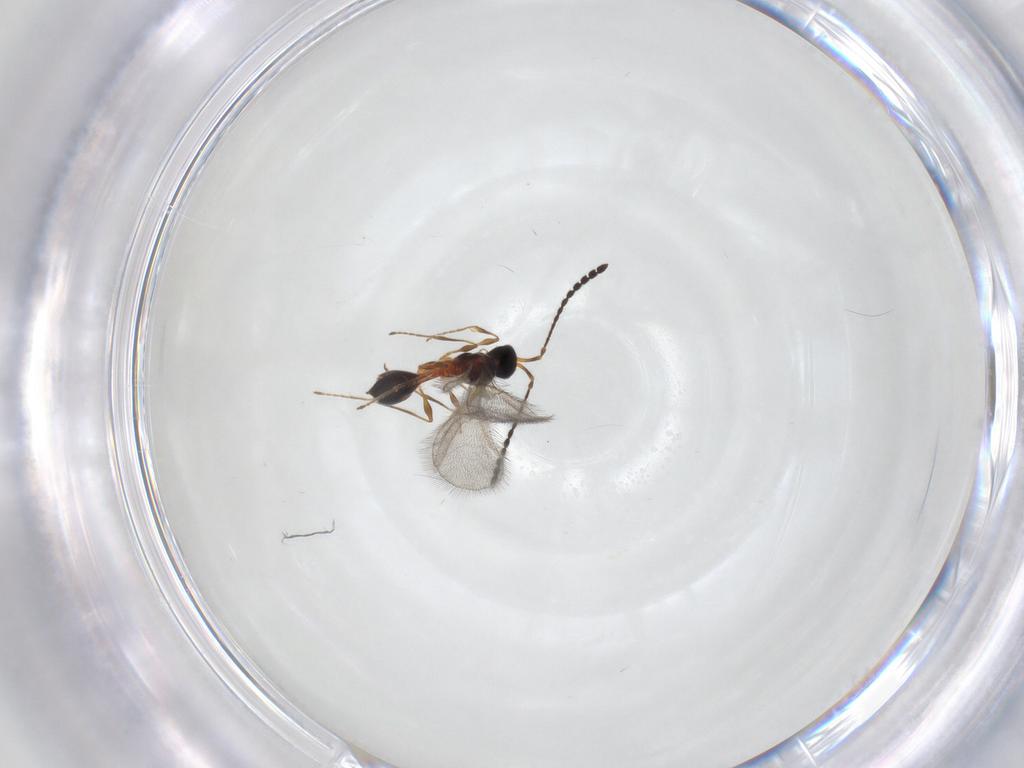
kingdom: Animalia
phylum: Arthropoda
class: Insecta
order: Hymenoptera
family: Diapriidae
